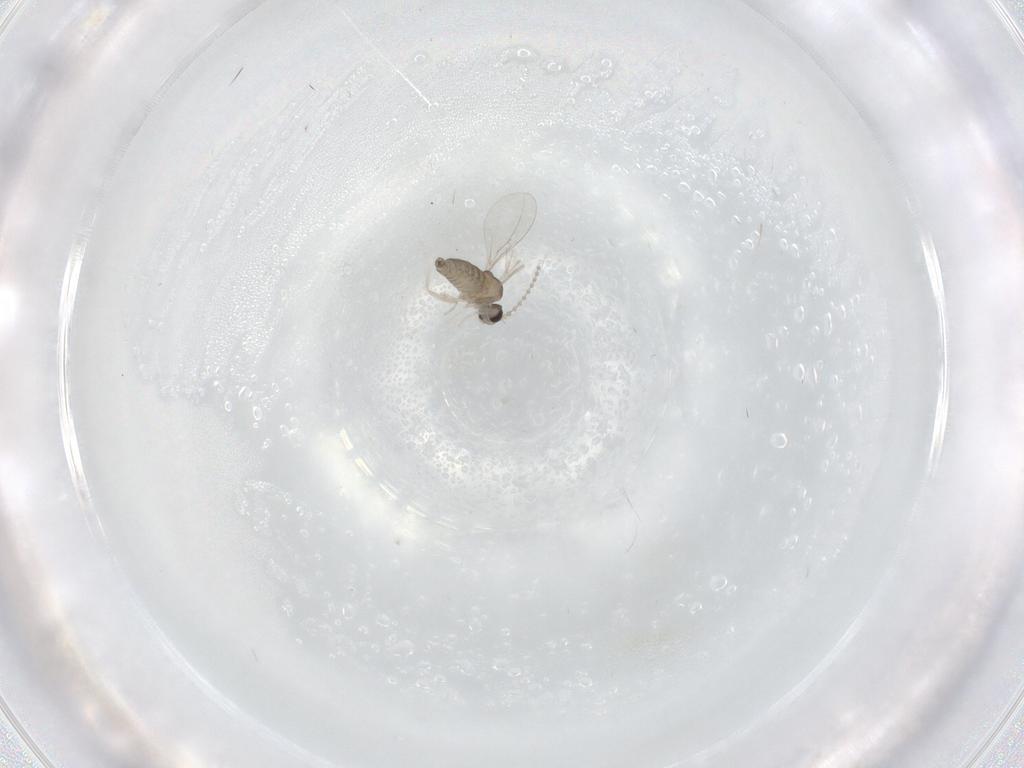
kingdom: Animalia
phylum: Arthropoda
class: Insecta
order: Diptera
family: Cecidomyiidae
